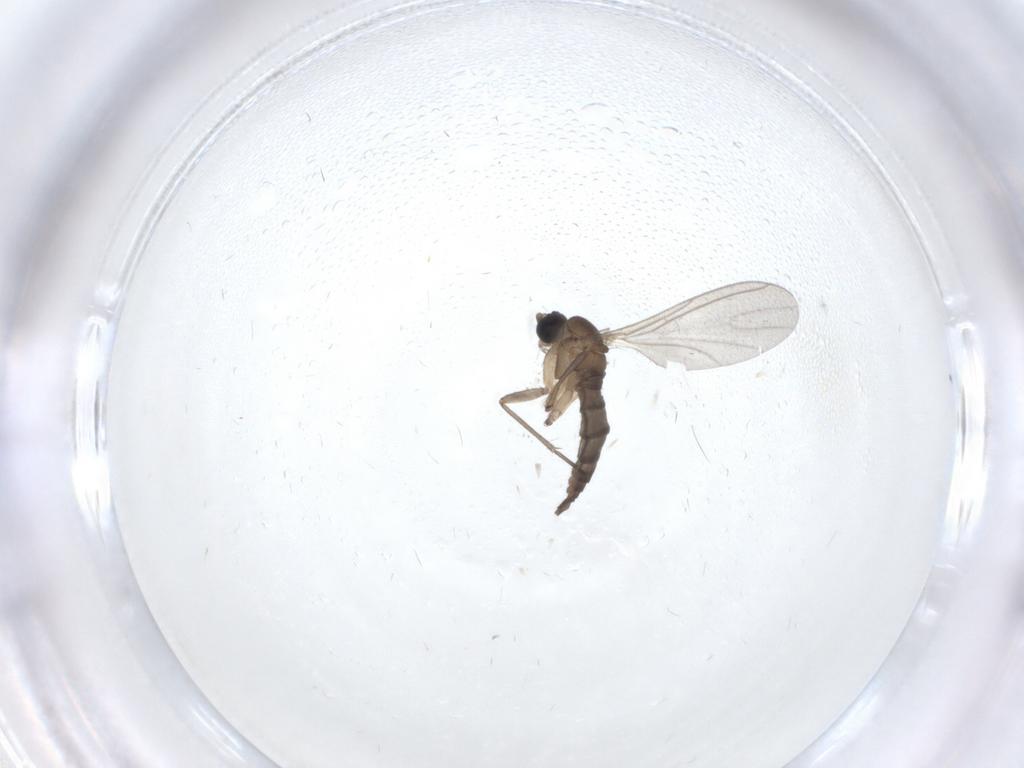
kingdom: Animalia
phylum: Arthropoda
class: Insecta
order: Diptera
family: Sciaridae
